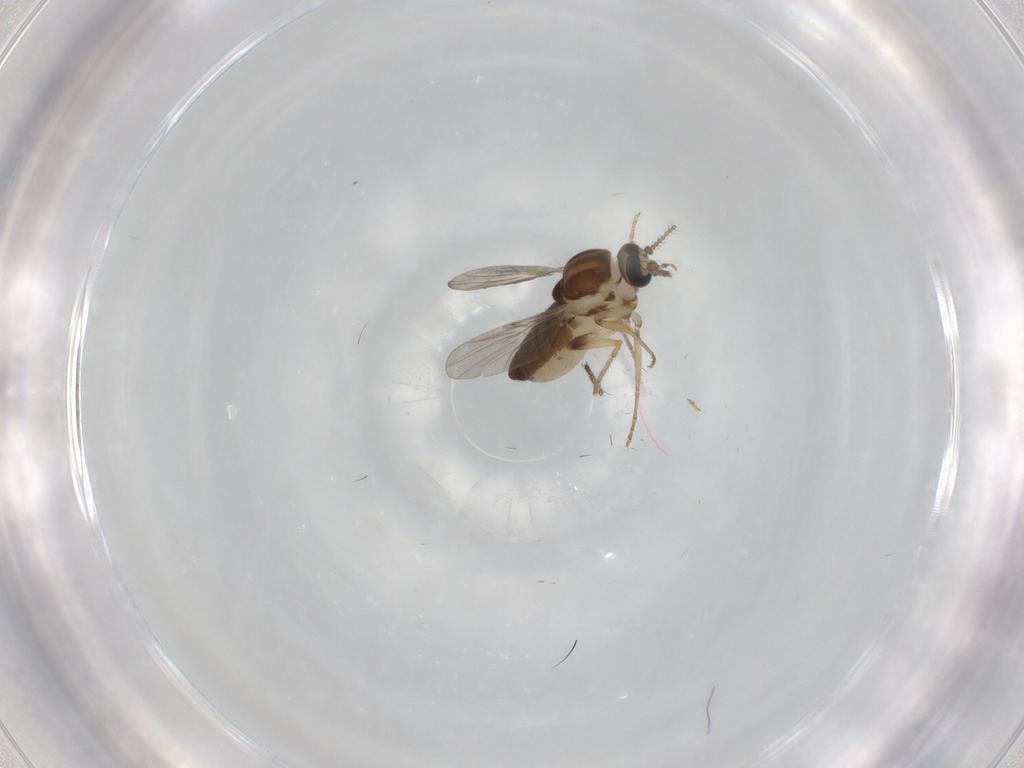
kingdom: Animalia
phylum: Arthropoda
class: Insecta
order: Diptera
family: Ceratopogonidae
